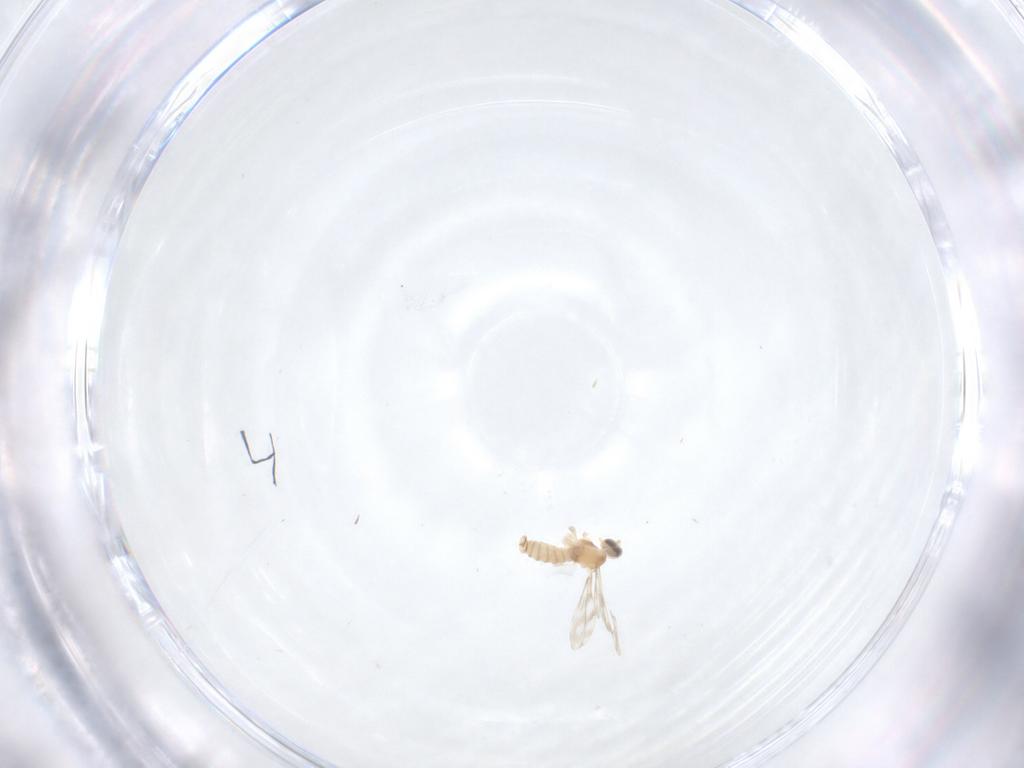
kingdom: Animalia
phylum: Arthropoda
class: Insecta
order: Diptera
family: Cecidomyiidae
